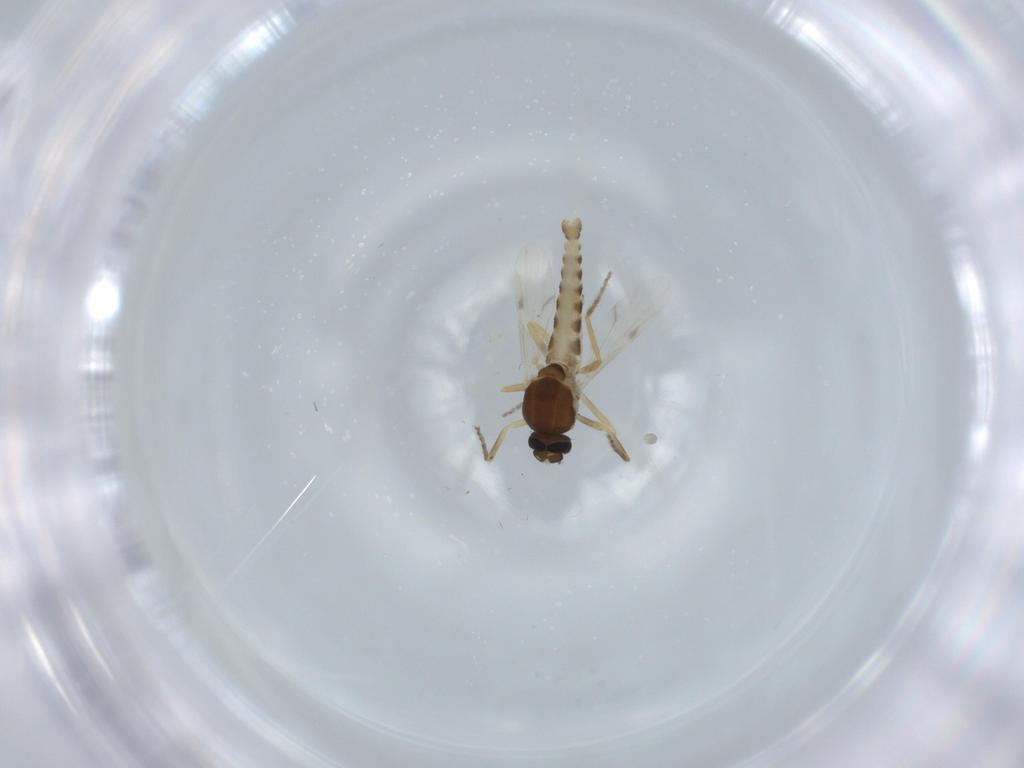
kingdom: Animalia
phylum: Arthropoda
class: Insecta
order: Diptera
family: Ceratopogonidae
